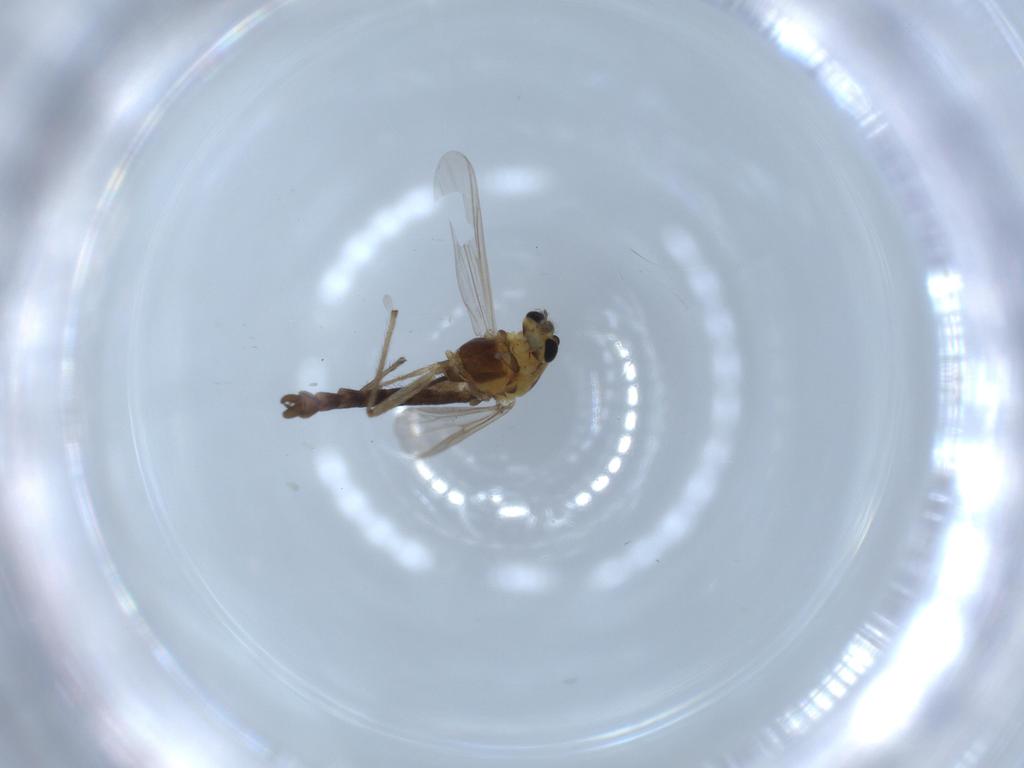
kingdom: Animalia
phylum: Arthropoda
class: Insecta
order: Diptera
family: Chironomidae
